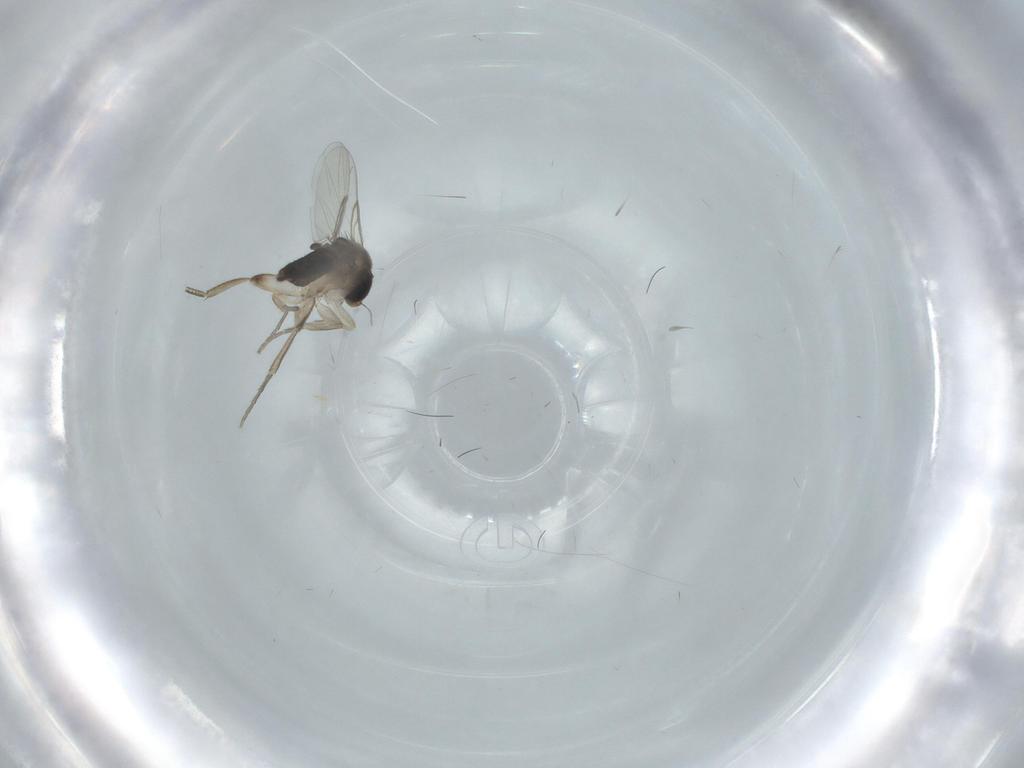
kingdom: Animalia
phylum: Arthropoda
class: Insecta
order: Diptera
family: Phoridae
